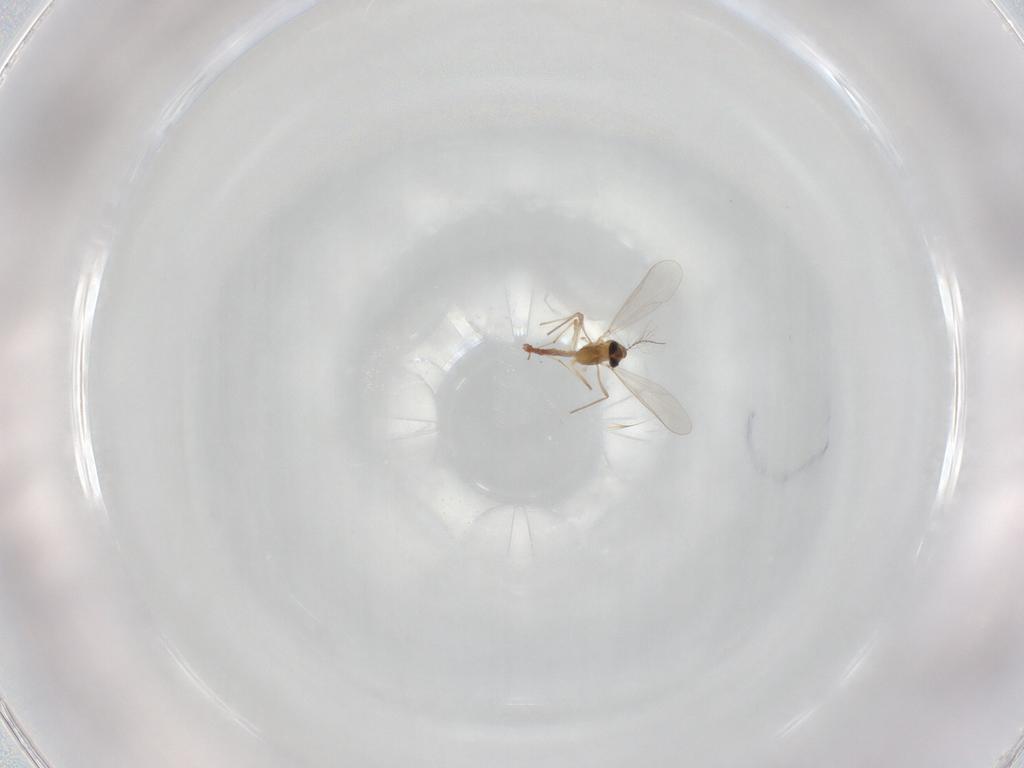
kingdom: Animalia
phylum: Arthropoda
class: Insecta
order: Diptera
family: Chironomidae
